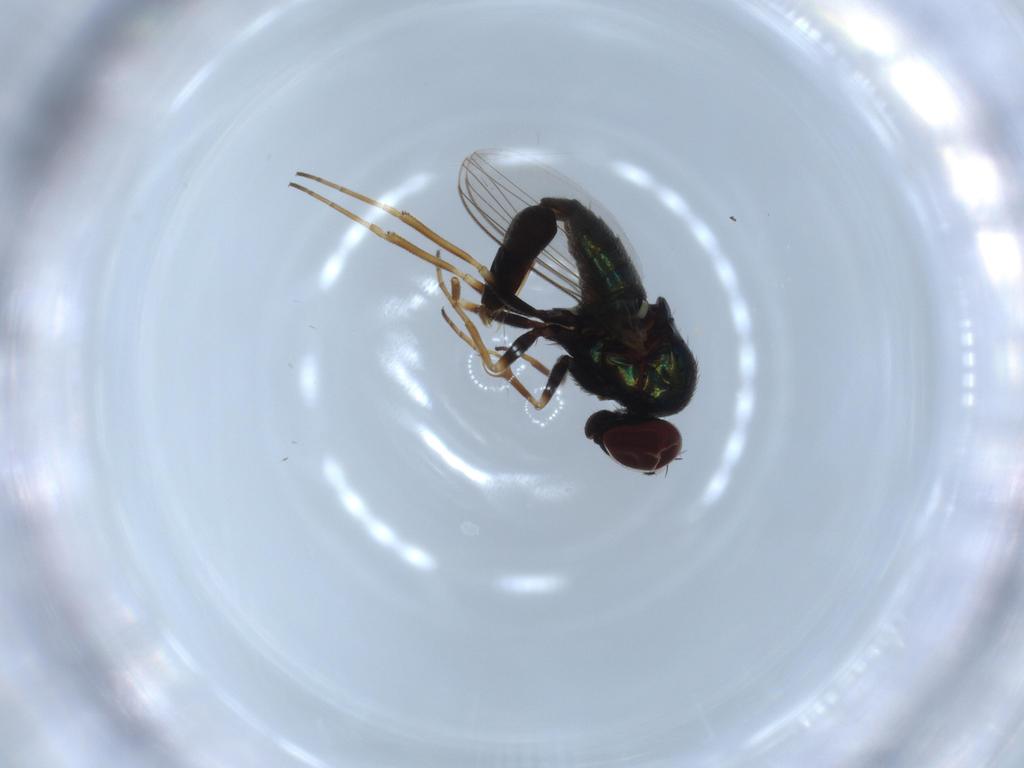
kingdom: Animalia
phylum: Arthropoda
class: Insecta
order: Diptera
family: Dolichopodidae
